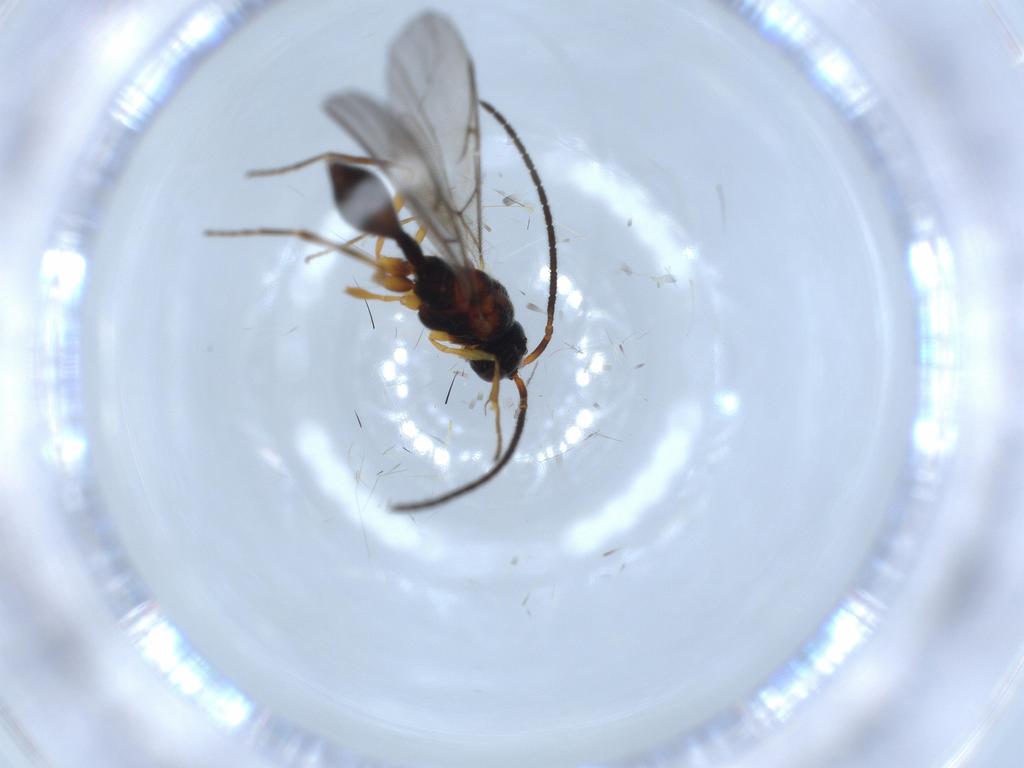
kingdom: Animalia
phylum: Arthropoda
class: Insecta
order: Hymenoptera
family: Diapriidae
